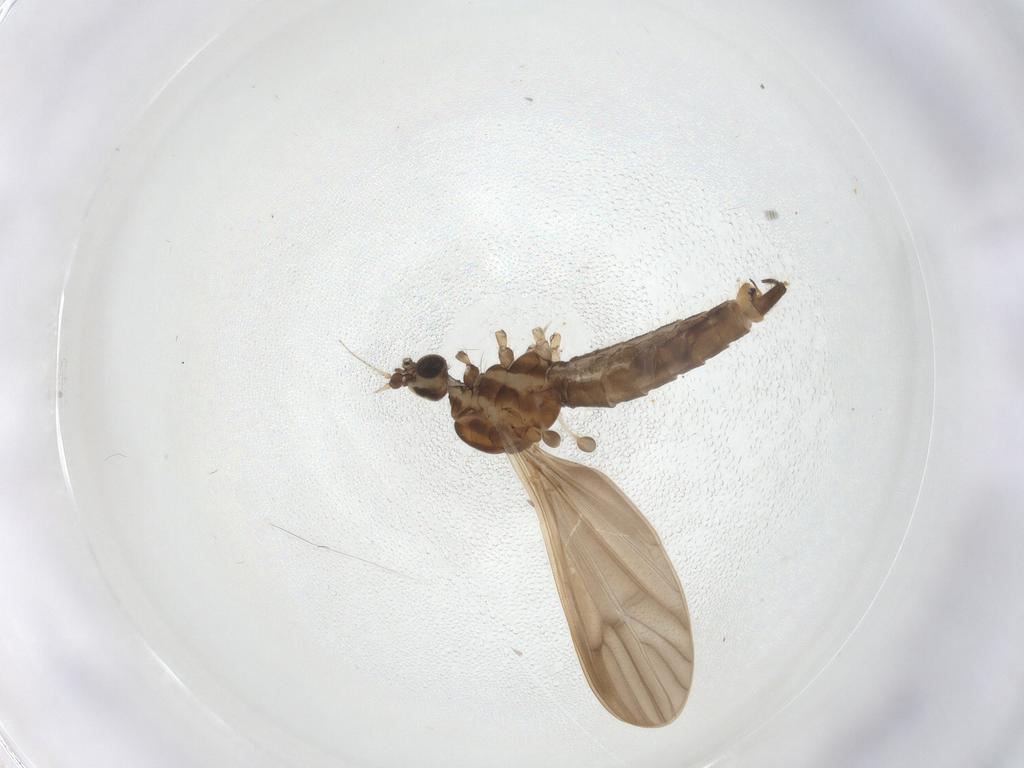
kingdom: Animalia
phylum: Arthropoda
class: Insecta
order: Diptera
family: Limoniidae
